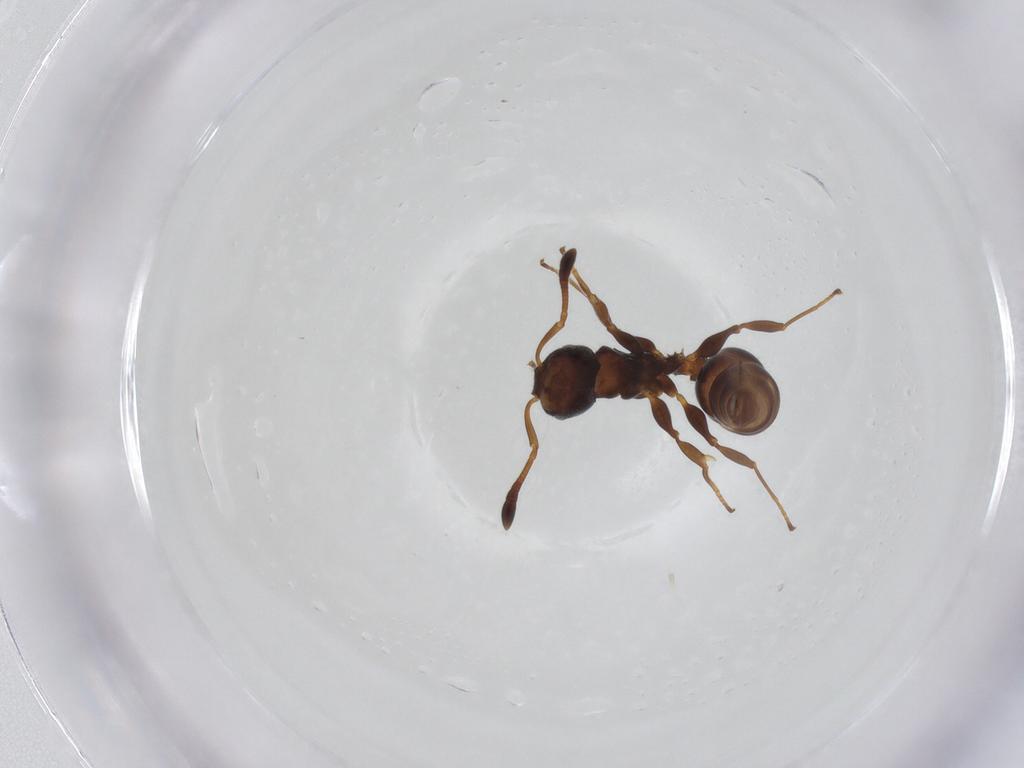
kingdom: Animalia
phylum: Arthropoda
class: Insecta
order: Hymenoptera
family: Formicidae
